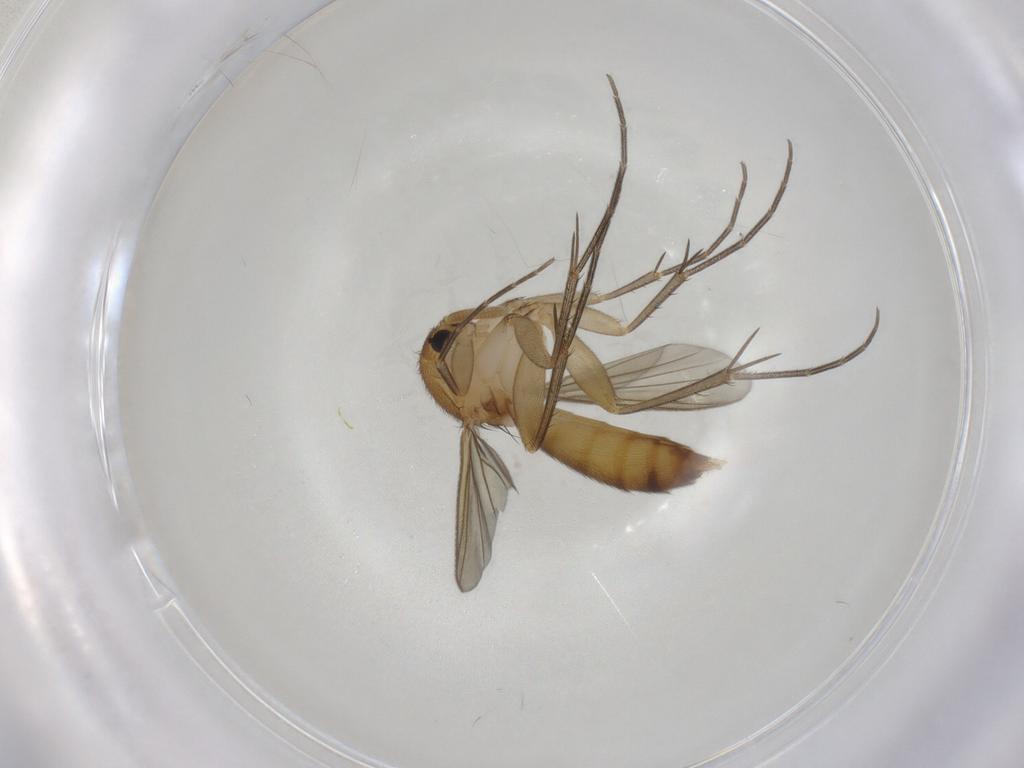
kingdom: Animalia
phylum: Arthropoda
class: Insecta
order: Diptera
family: Mycetophilidae
